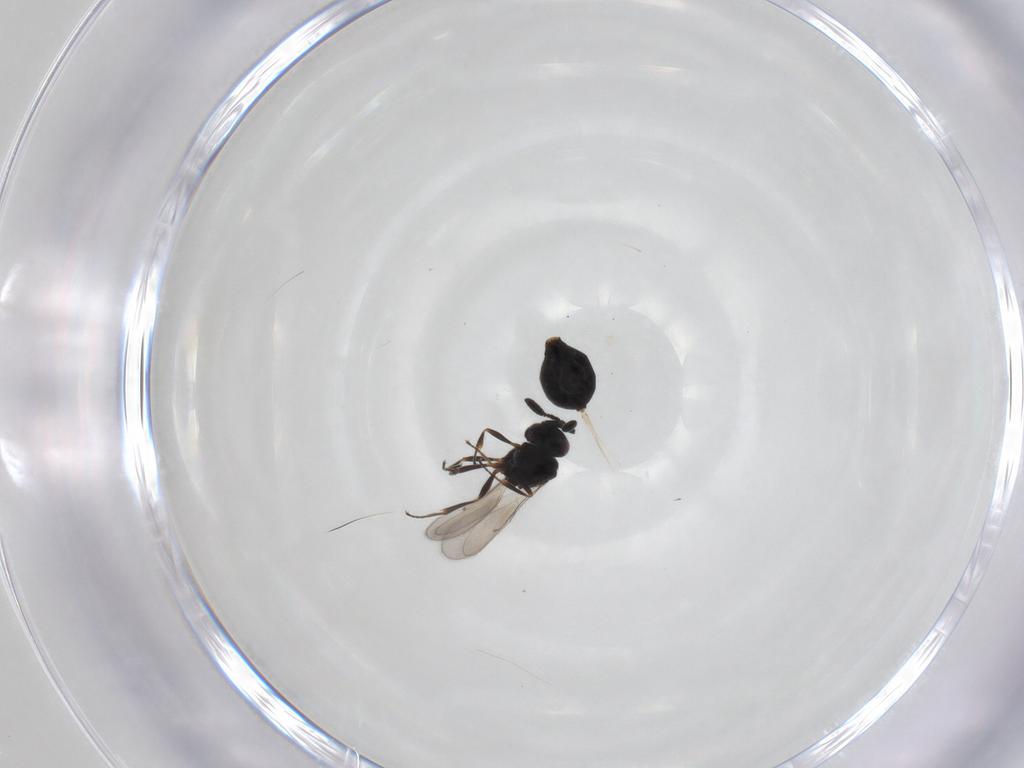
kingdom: Animalia
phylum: Arthropoda
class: Insecta
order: Hymenoptera
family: Scelionidae
